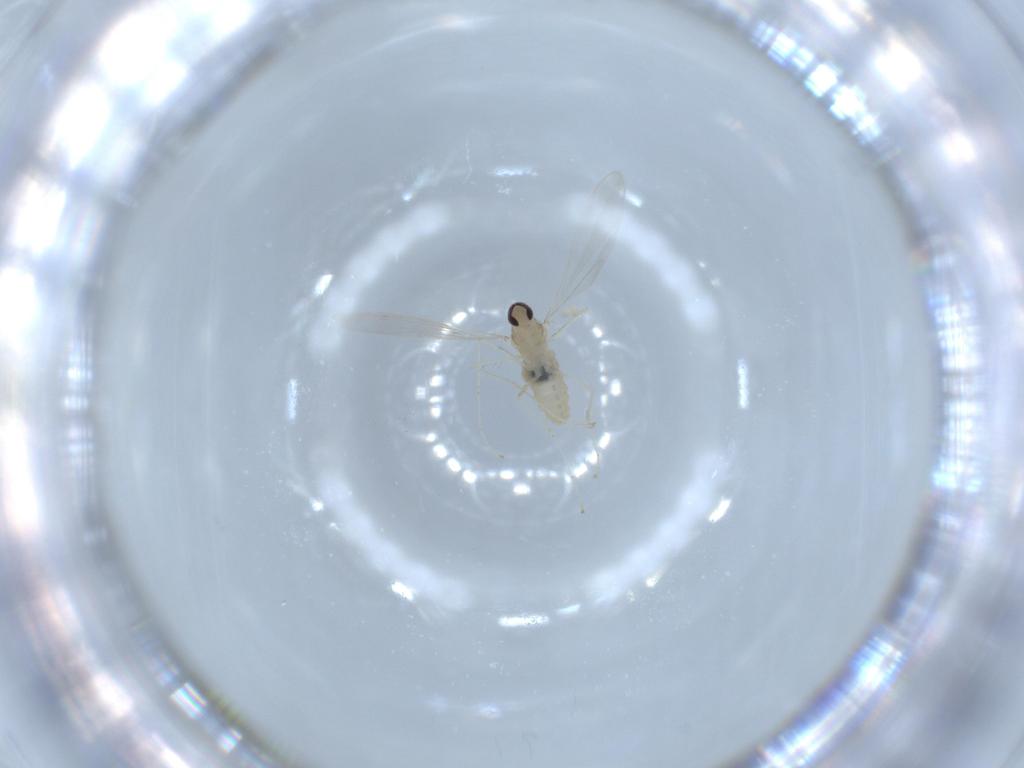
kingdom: Animalia
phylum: Arthropoda
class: Insecta
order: Diptera
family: Cecidomyiidae
